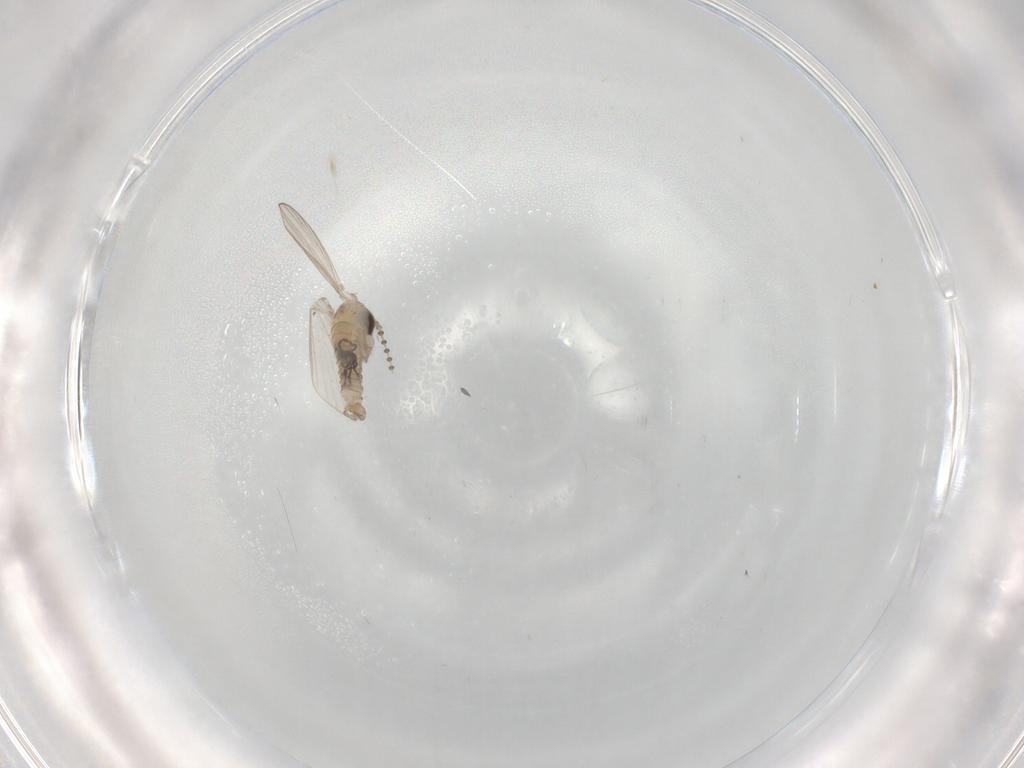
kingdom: Animalia
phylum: Arthropoda
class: Insecta
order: Diptera
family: Psychodidae
